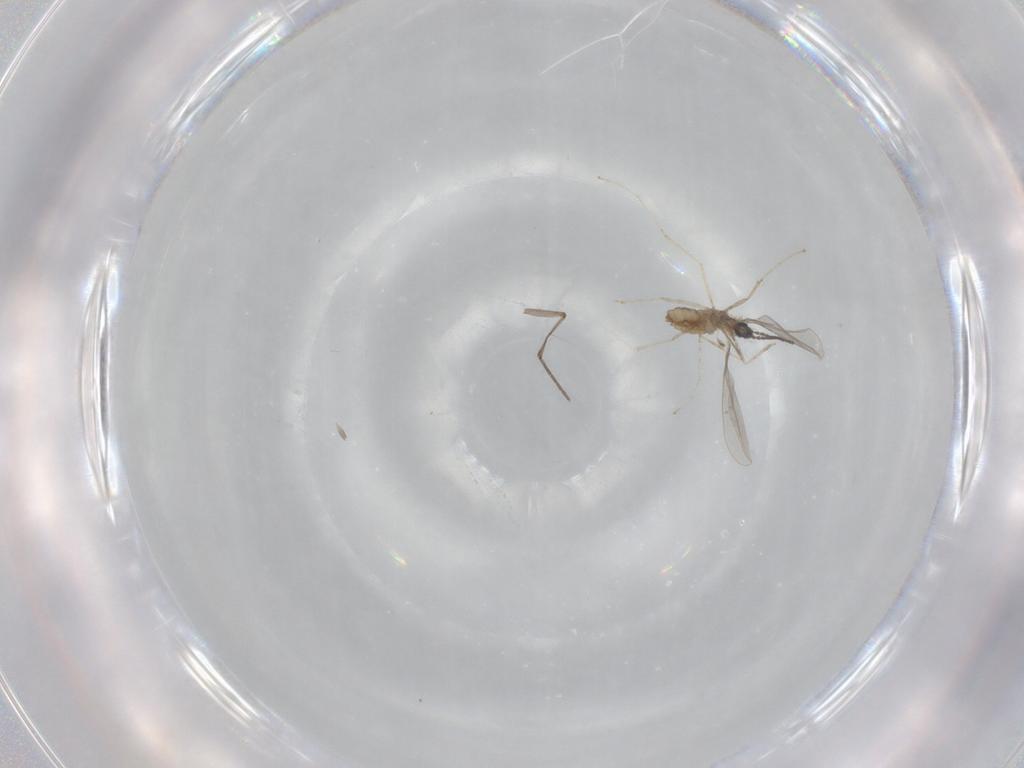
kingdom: Animalia
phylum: Arthropoda
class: Insecta
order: Diptera
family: Cecidomyiidae
